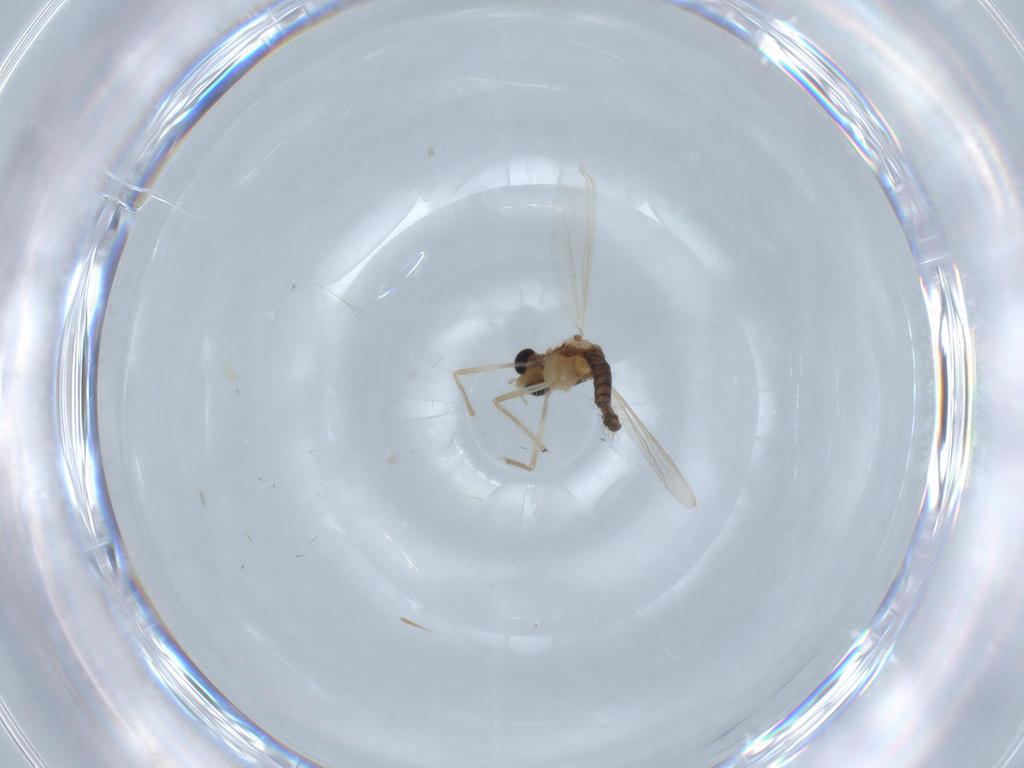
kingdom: Animalia
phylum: Arthropoda
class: Insecta
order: Diptera
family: Chironomidae
